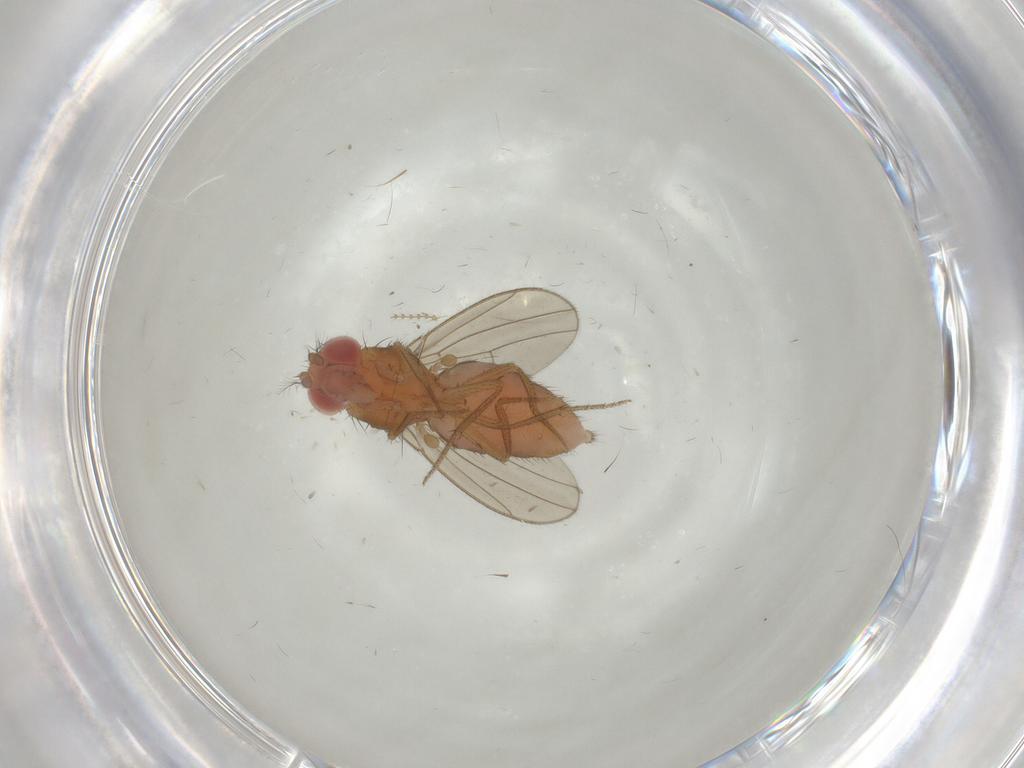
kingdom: Animalia
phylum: Arthropoda
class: Insecta
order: Diptera
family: Drosophilidae
